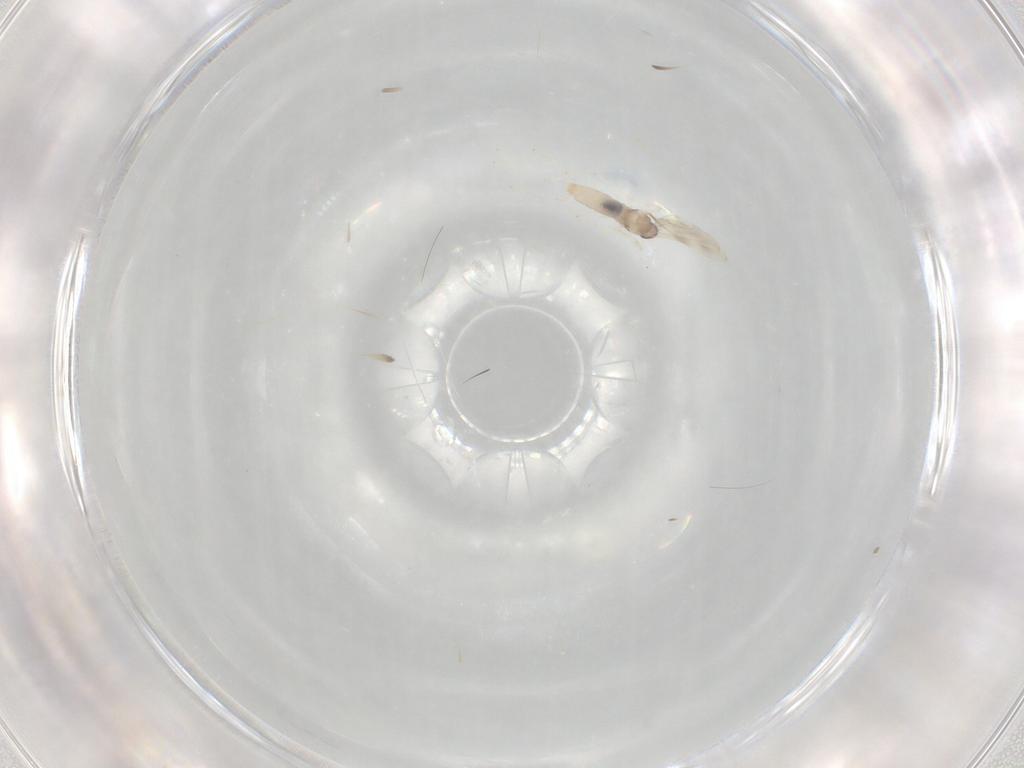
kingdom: Animalia
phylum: Arthropoda
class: Insecta
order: Diptera
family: Cecidomyiidae
